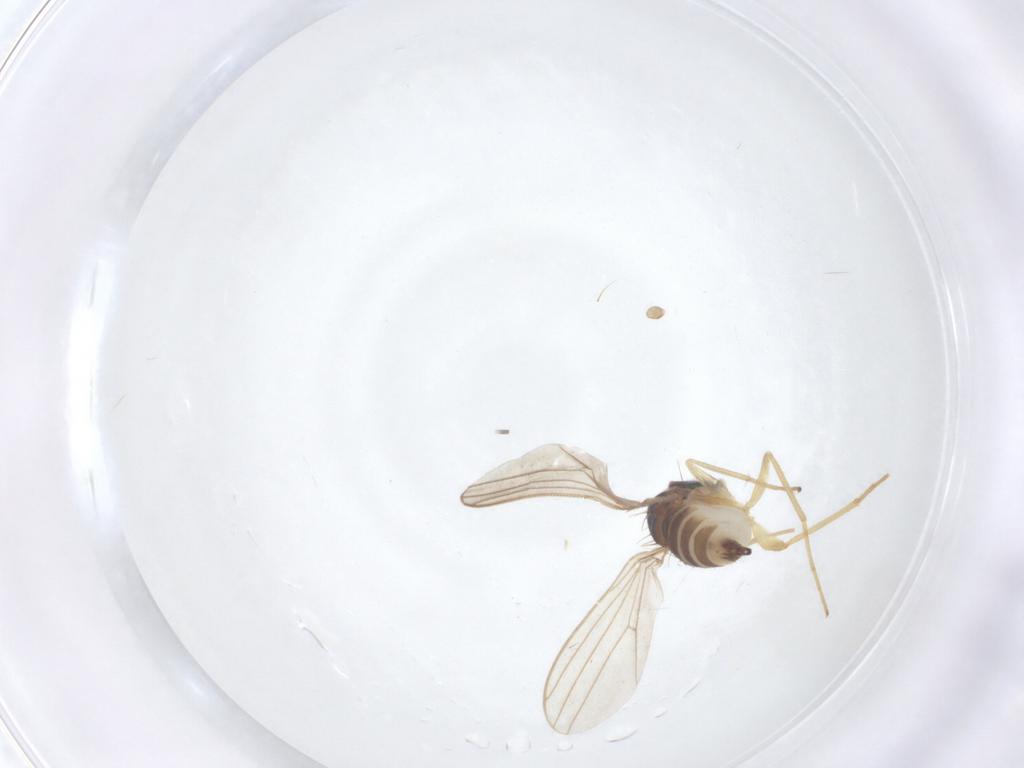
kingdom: Animalia
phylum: Arthropoda
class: Insecta
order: Diptera
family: Dolichopodidae
